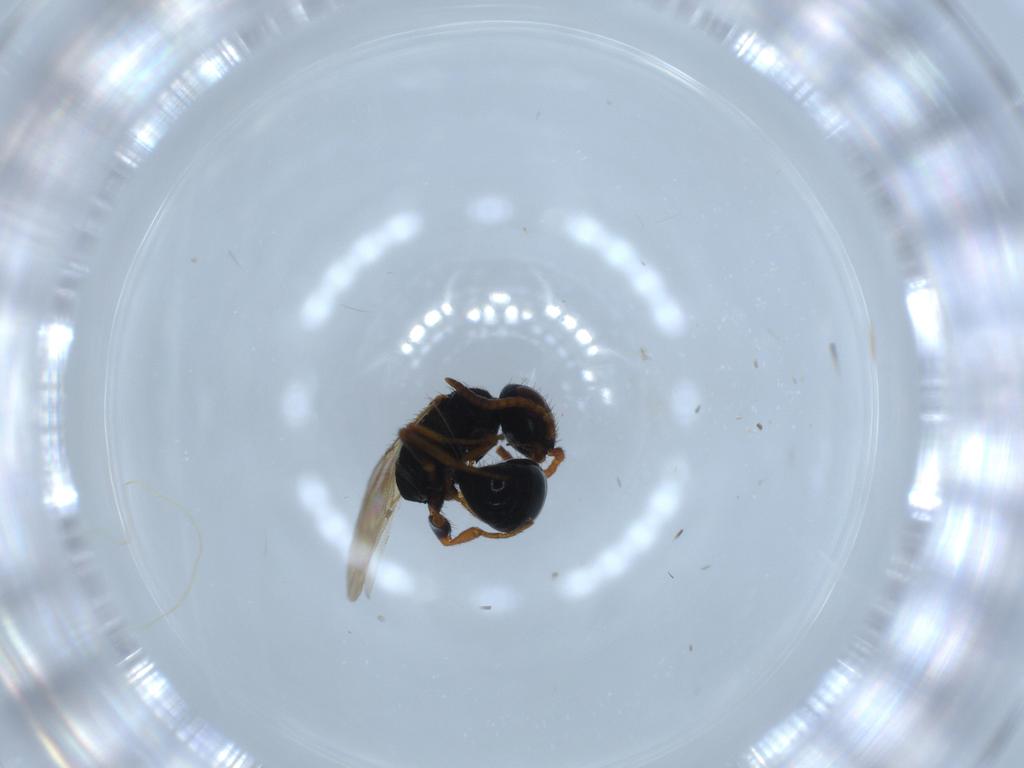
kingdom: Animalia
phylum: Arthropoda
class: Insecta
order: Hymenoptera
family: Bethylidae
